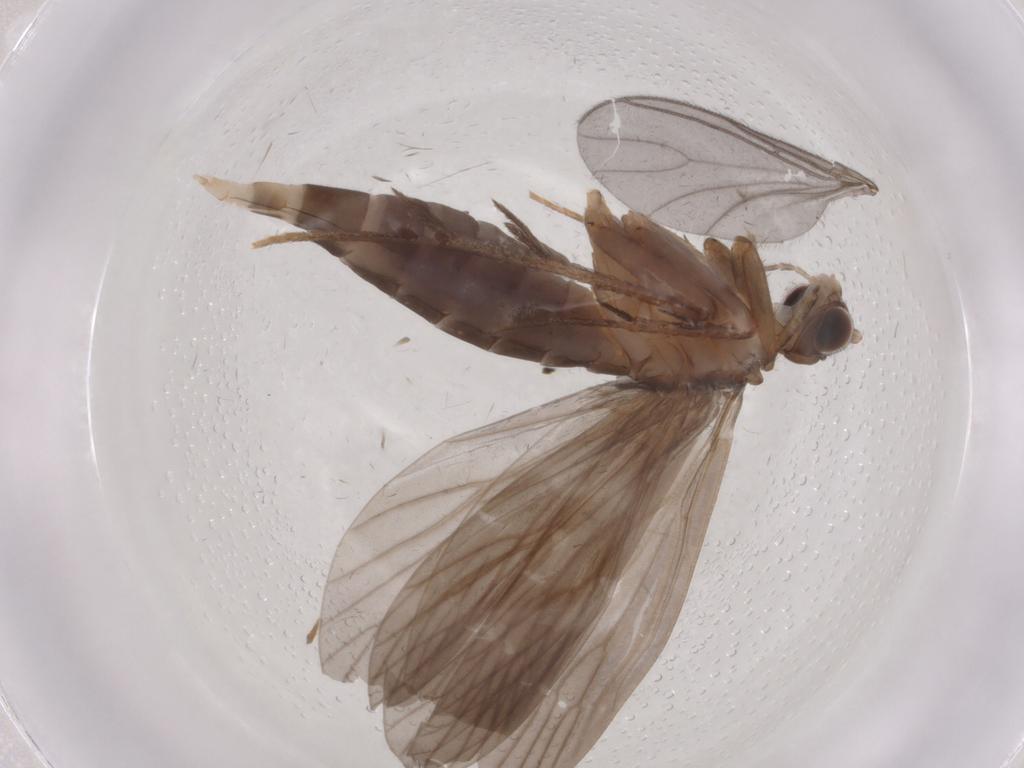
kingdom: Animalia
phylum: Arthropoda
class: Insecta
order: Trichoptera
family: Philopotamidae
